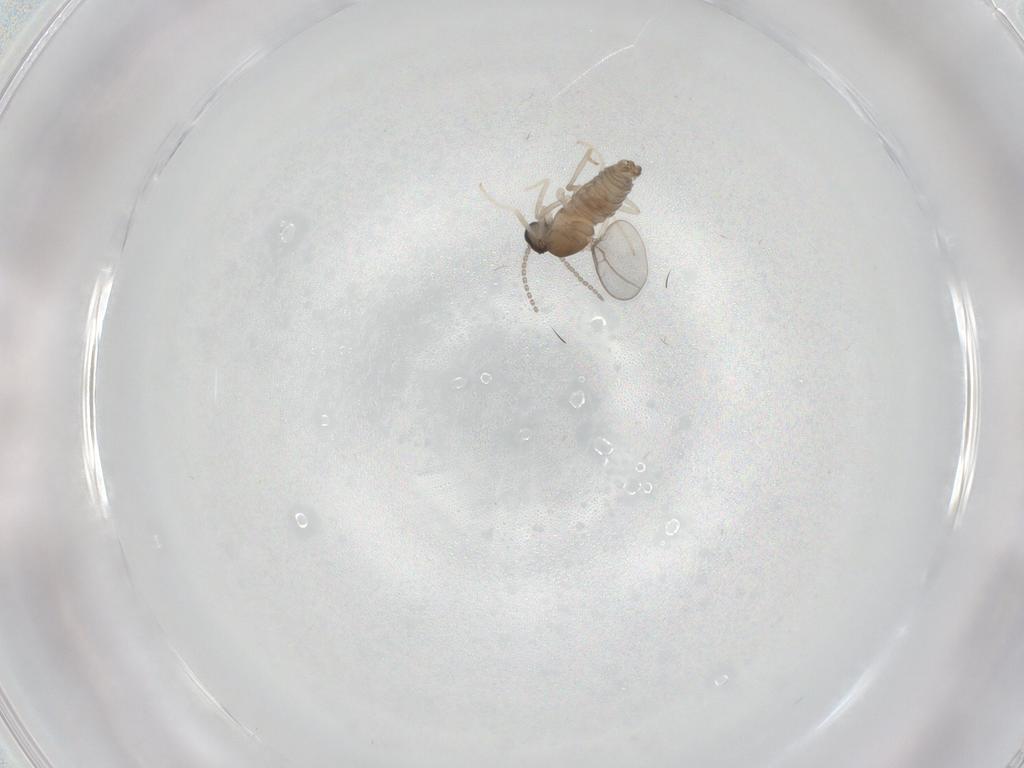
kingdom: Animalia
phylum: Arthropoda
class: Insecta
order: Diptera
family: Cecidomyiidae
